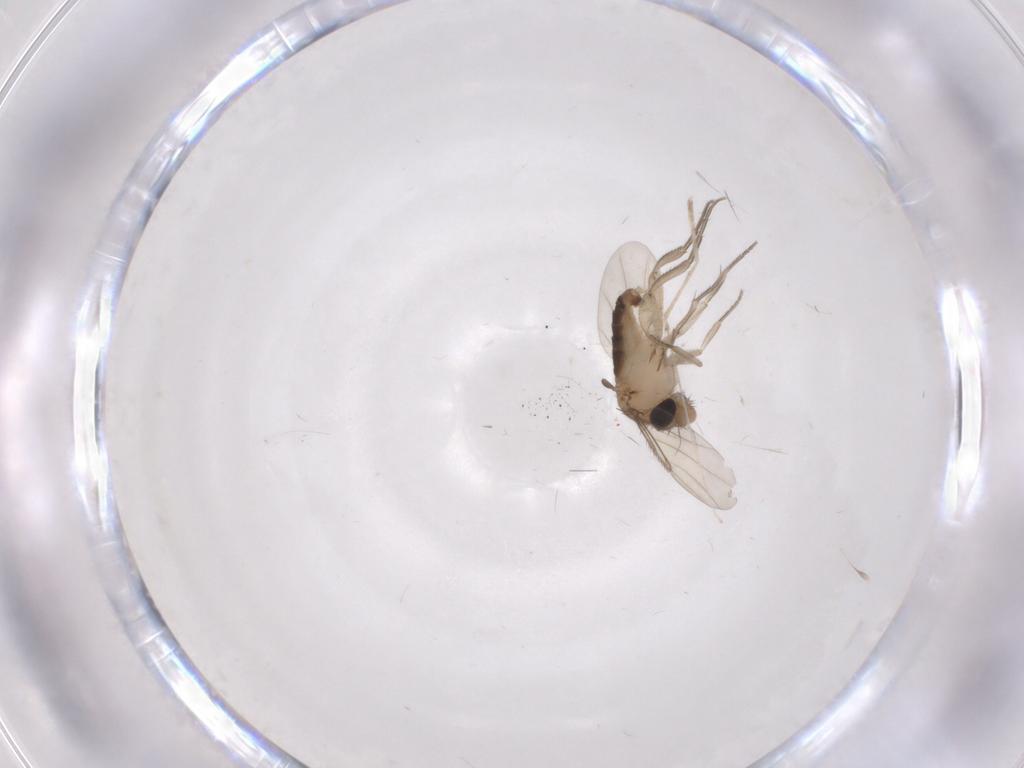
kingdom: Animalia
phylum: Arthropoda
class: Insecta
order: Diptera
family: Phoridae
